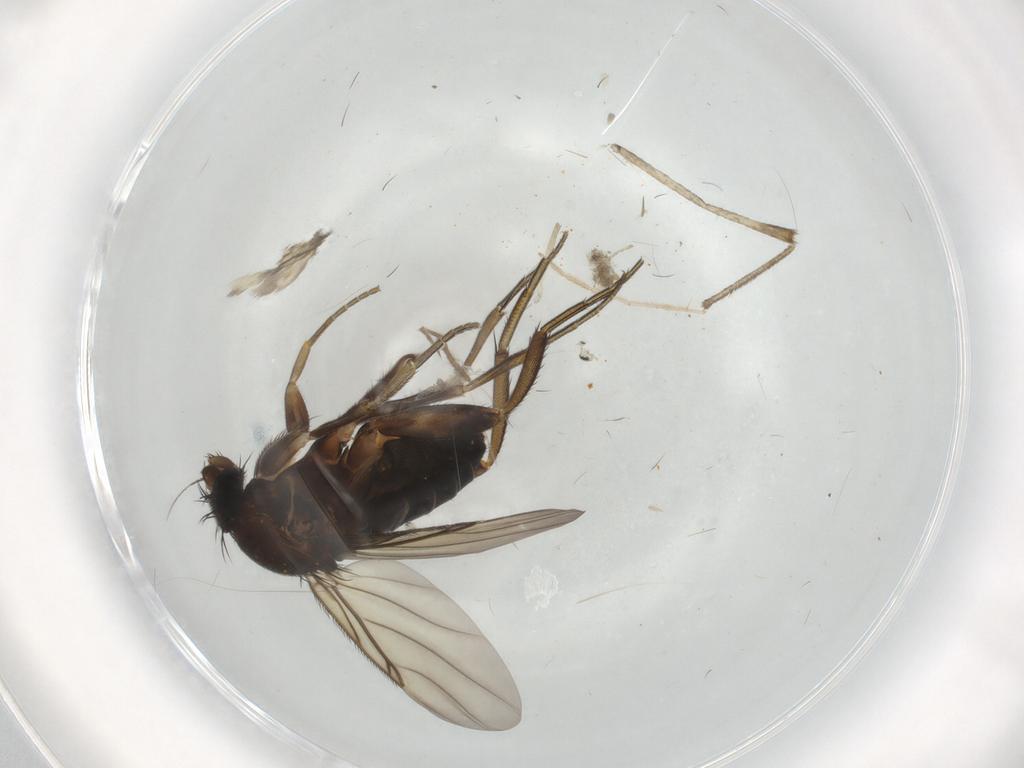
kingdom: Animalia
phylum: Arthropoda
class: Insecta
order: Diptera
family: Phoridae
